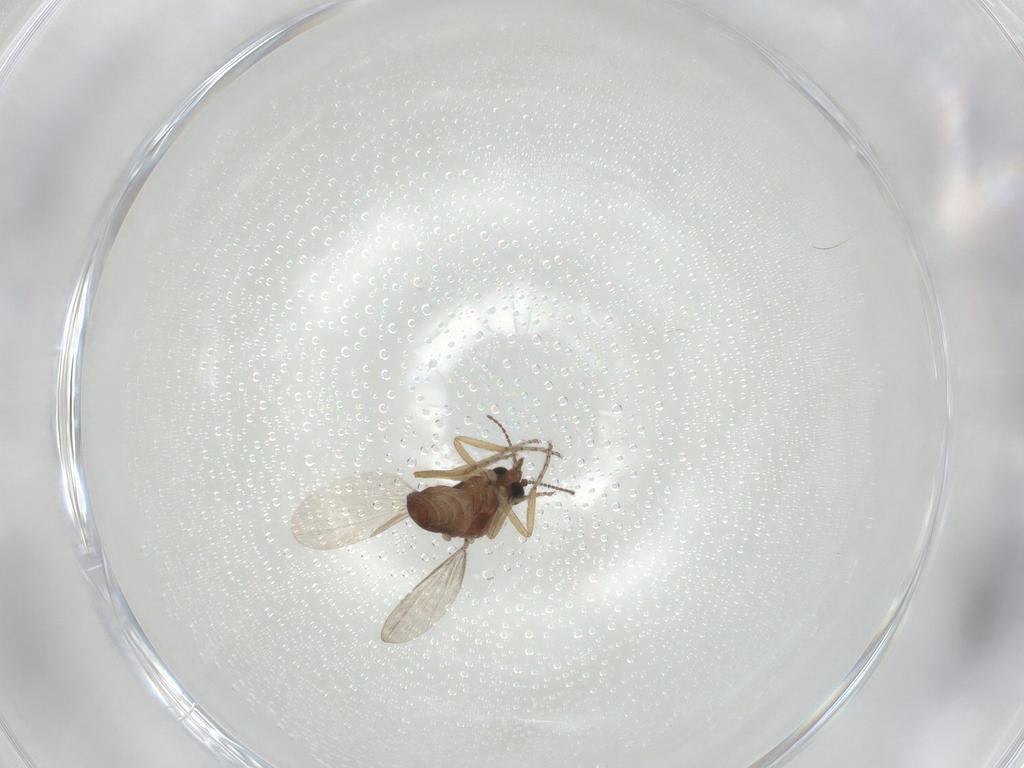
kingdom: Animalia
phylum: Arthropoda
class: Insecta
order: Diptera
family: Ceratopogonidae
